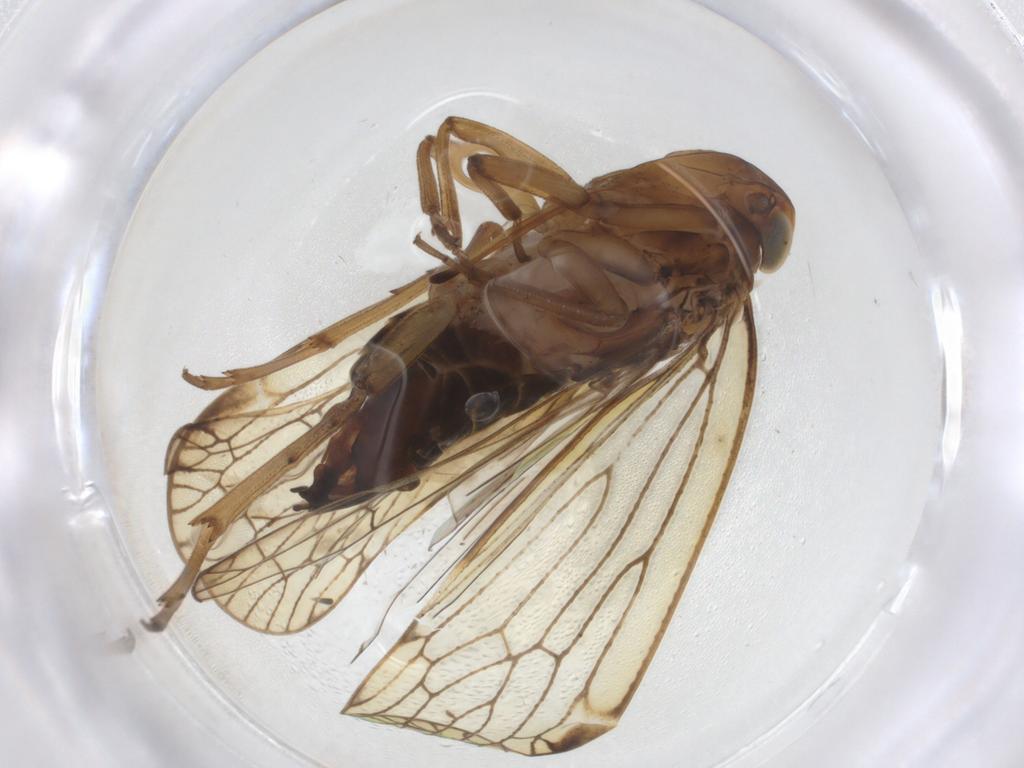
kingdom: Animalia
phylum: Arthropoda
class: Insecta
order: Hemiptera
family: Cixiidae
